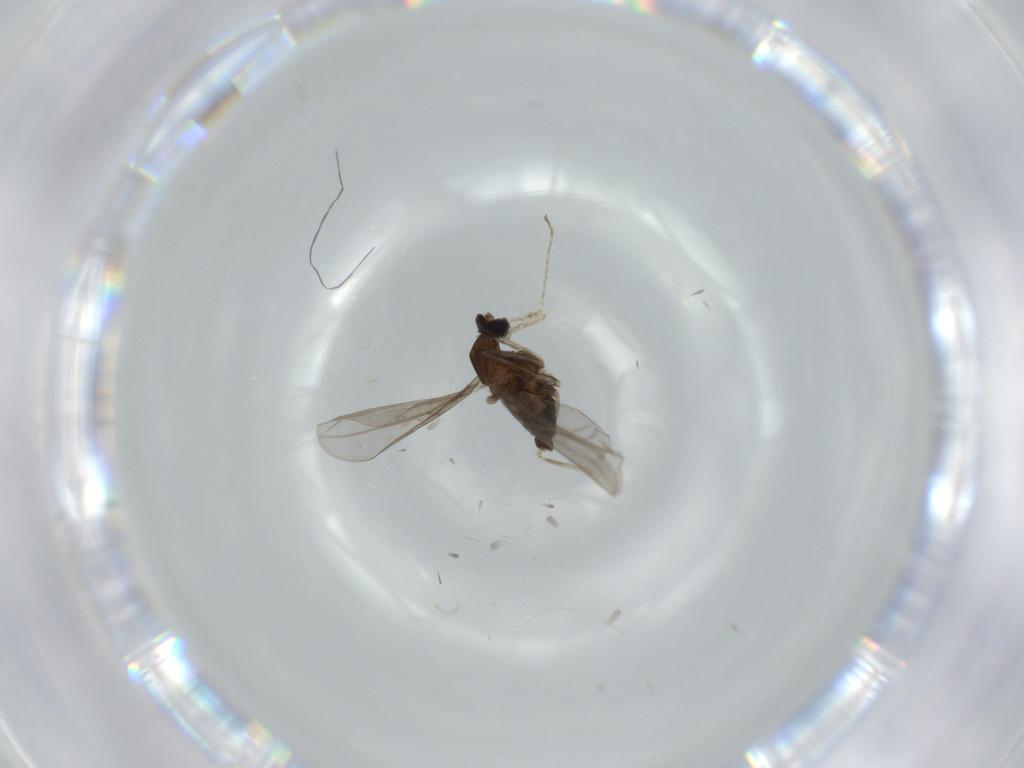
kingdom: Animalia
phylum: Arthropoda
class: Insecta
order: Diptera
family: Cecidomyiidae
